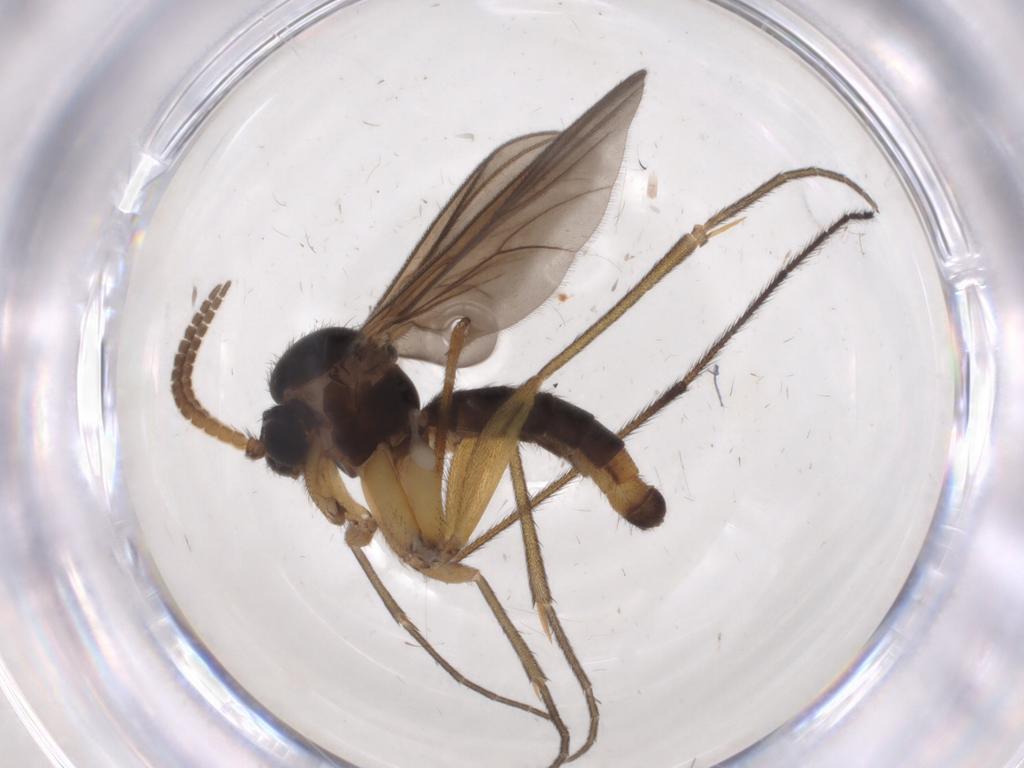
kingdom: Animalia
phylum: Arthropoda
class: Insecta
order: Diptera
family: Mycetophilidae
